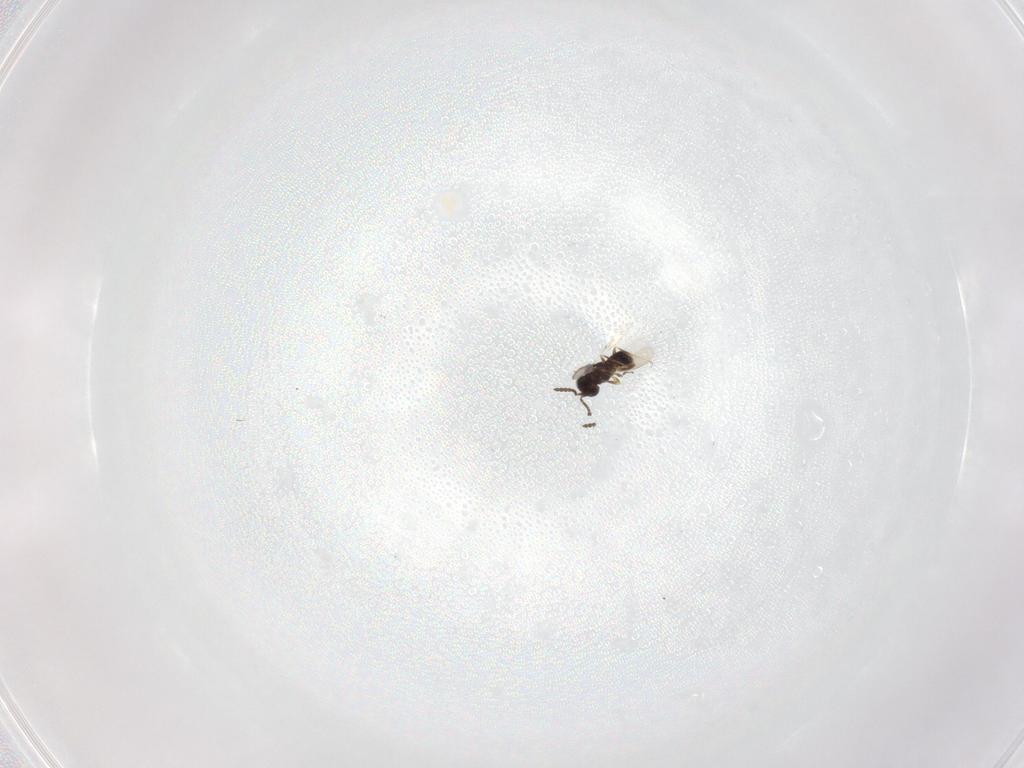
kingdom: Animalia
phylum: Arthropoda
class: Insecta
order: Hymenoptera
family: Scelionidae
